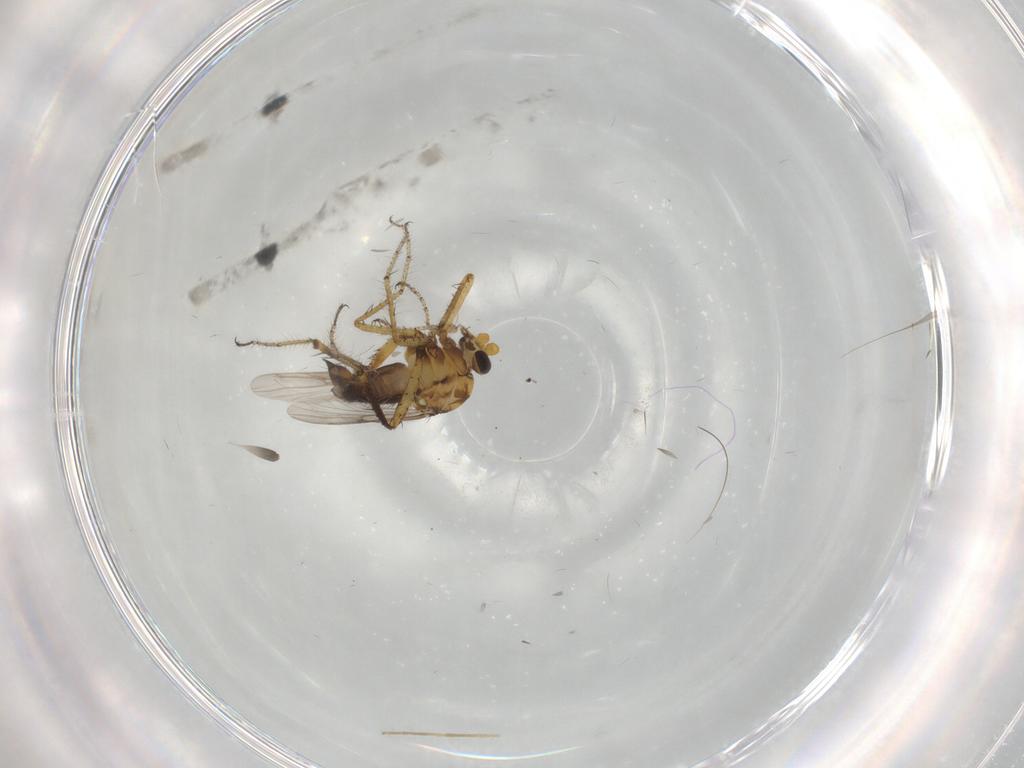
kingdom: Animalia
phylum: Arthropoda
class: Insecta
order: Diptera
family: Ceratopogonidae
